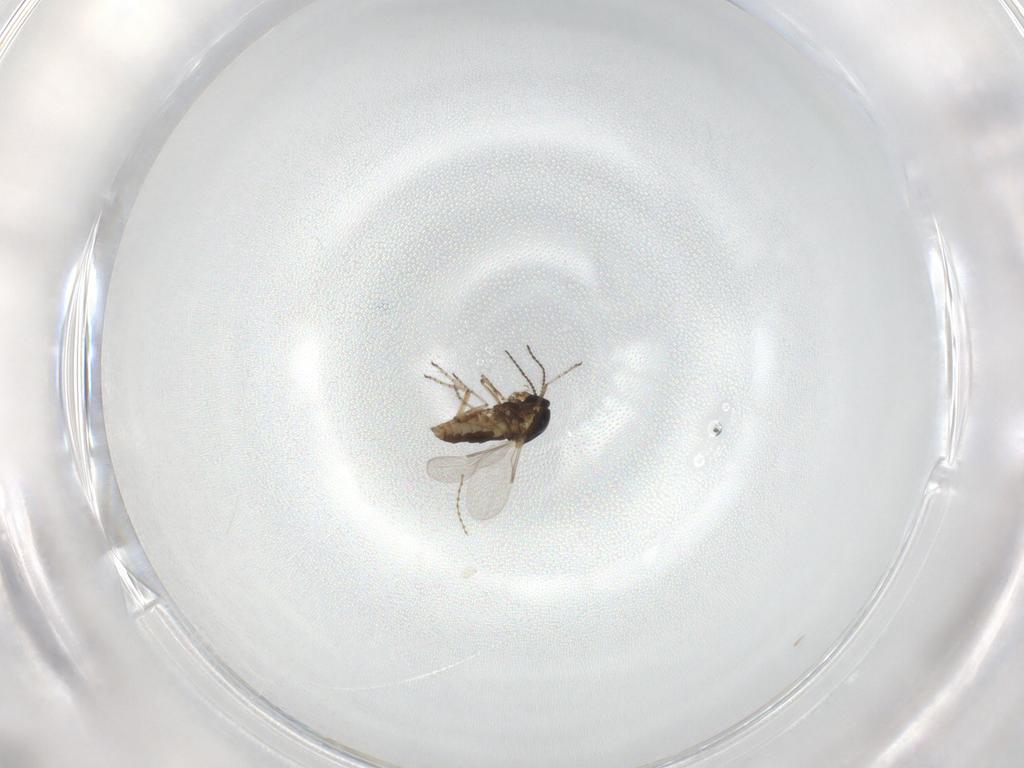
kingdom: Animalia
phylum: Arthropoda
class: Insecta
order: Diptera
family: Ceratopogonidae
